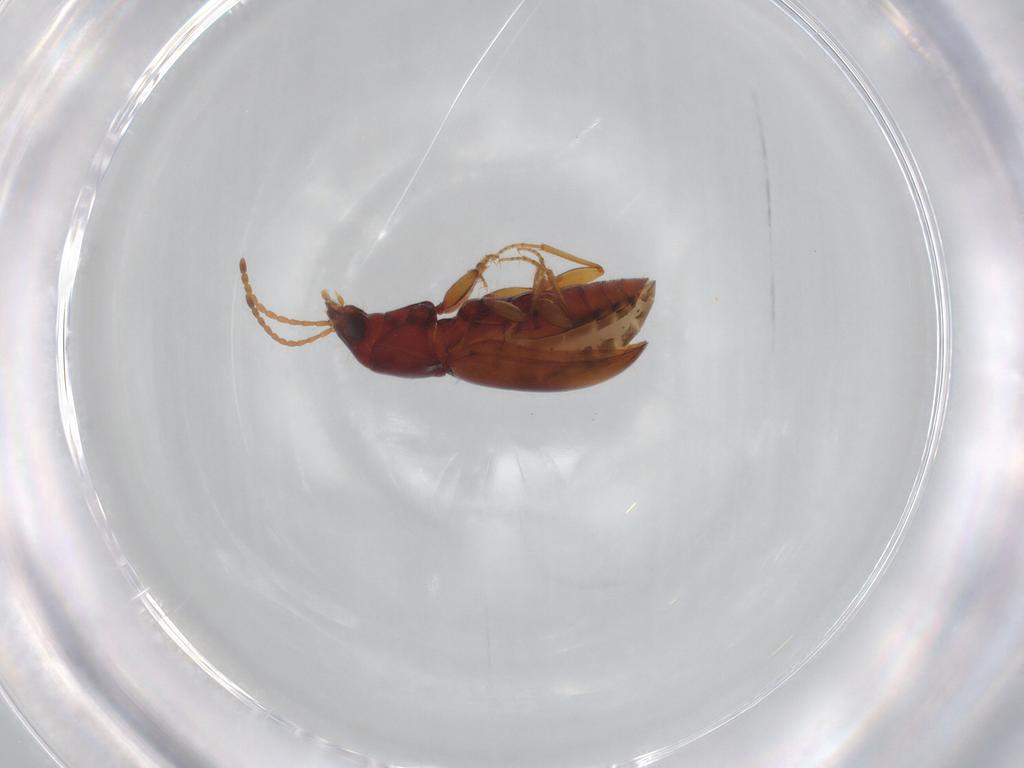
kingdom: Animalia
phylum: Arthropoda
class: Insecta
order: Coleoptera
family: Carabidae
